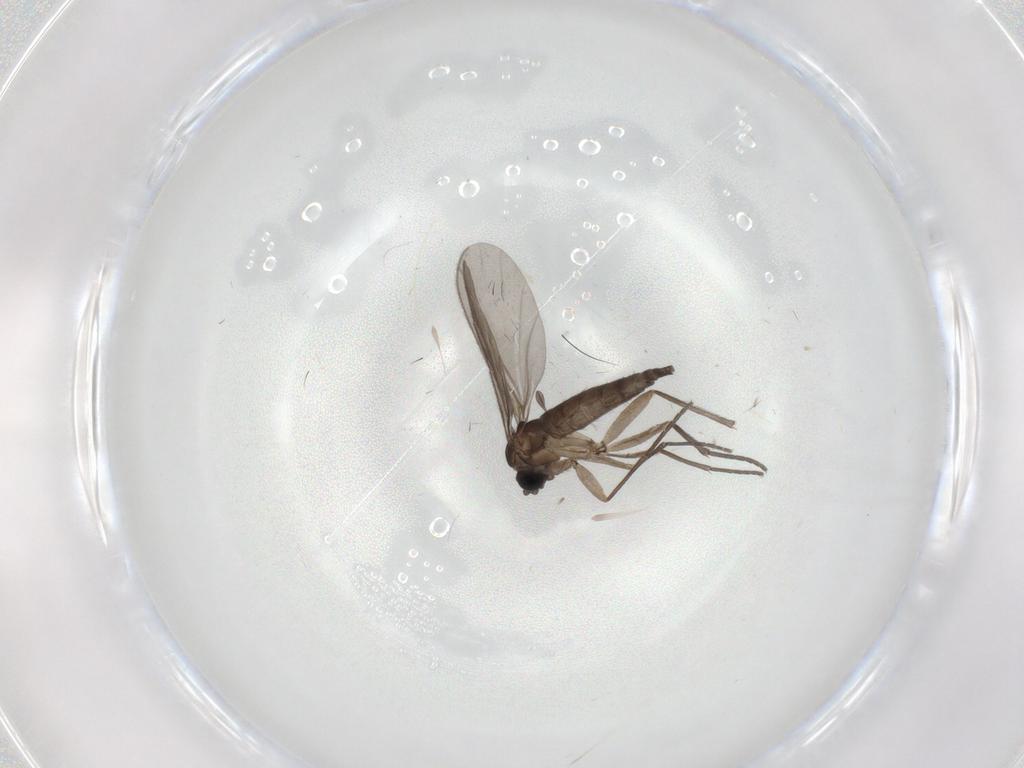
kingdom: Animalia
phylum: Arthropoda
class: Insecta
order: Diptera
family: Sciaridae
